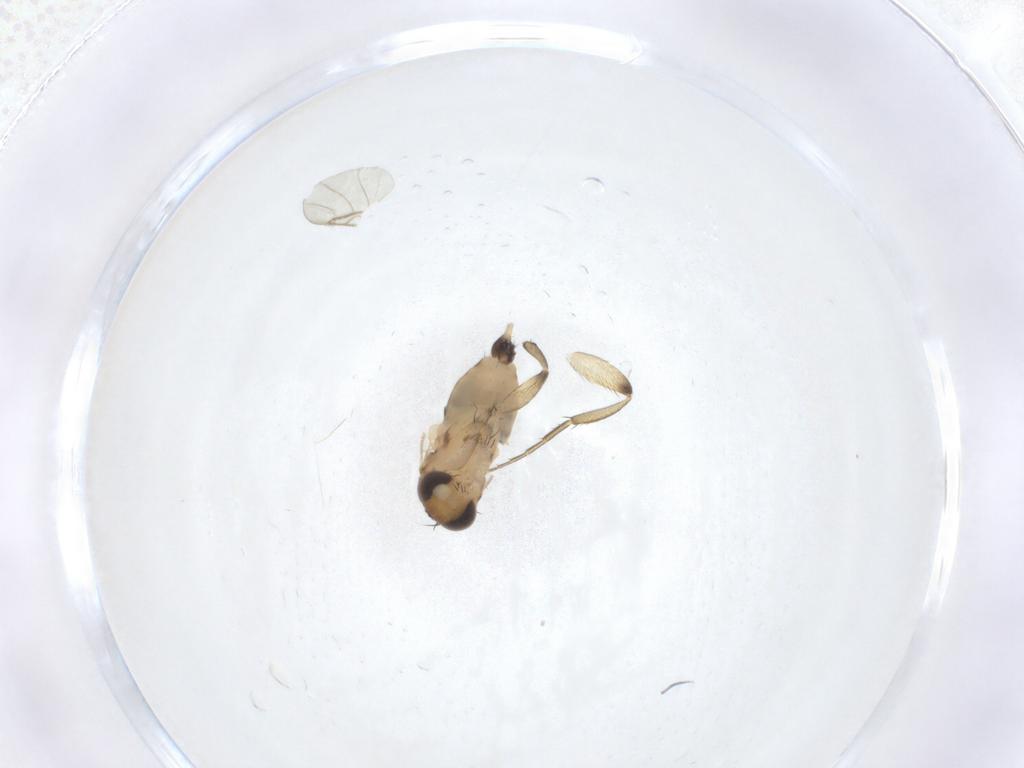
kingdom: Animalia
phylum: Arthropoda
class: Insecta
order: Diptera
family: Phoridae
